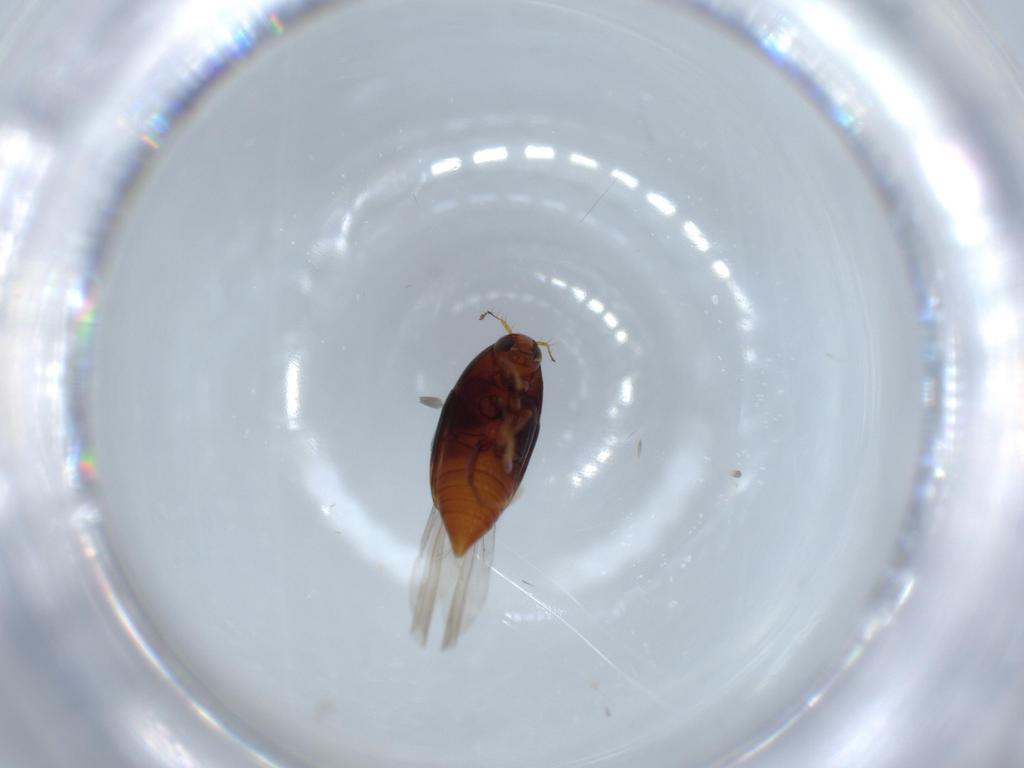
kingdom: Animalia
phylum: Arthropoda
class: Insecta
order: Coleoptera
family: Staphylinidae
